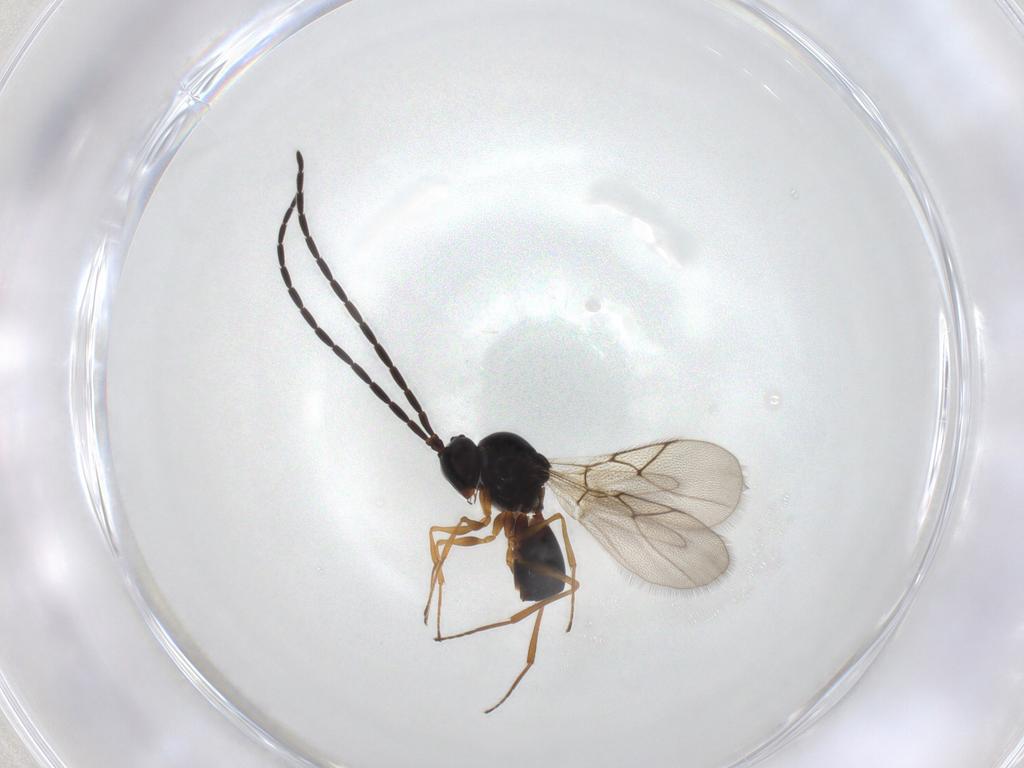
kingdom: Animalia
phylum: Arthropoda
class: Insecta
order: Hymenoptera
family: Figitidae
